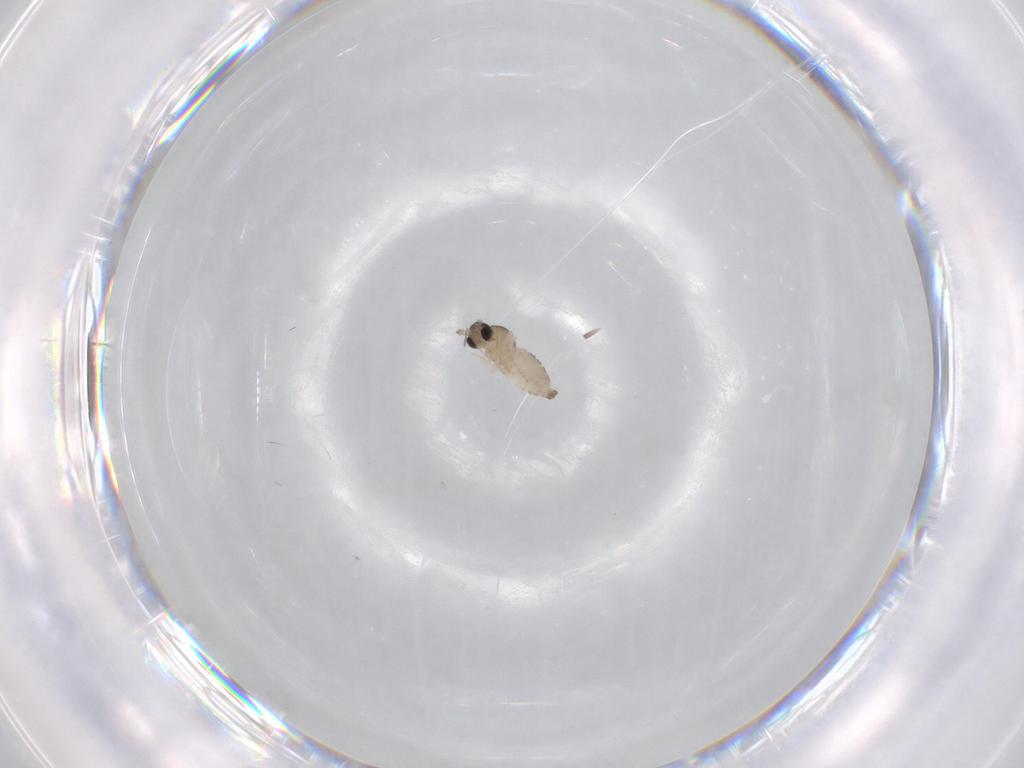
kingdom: Animalia
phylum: Arthropoda
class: Insecta
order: Diptera
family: Cecidomyiidae
